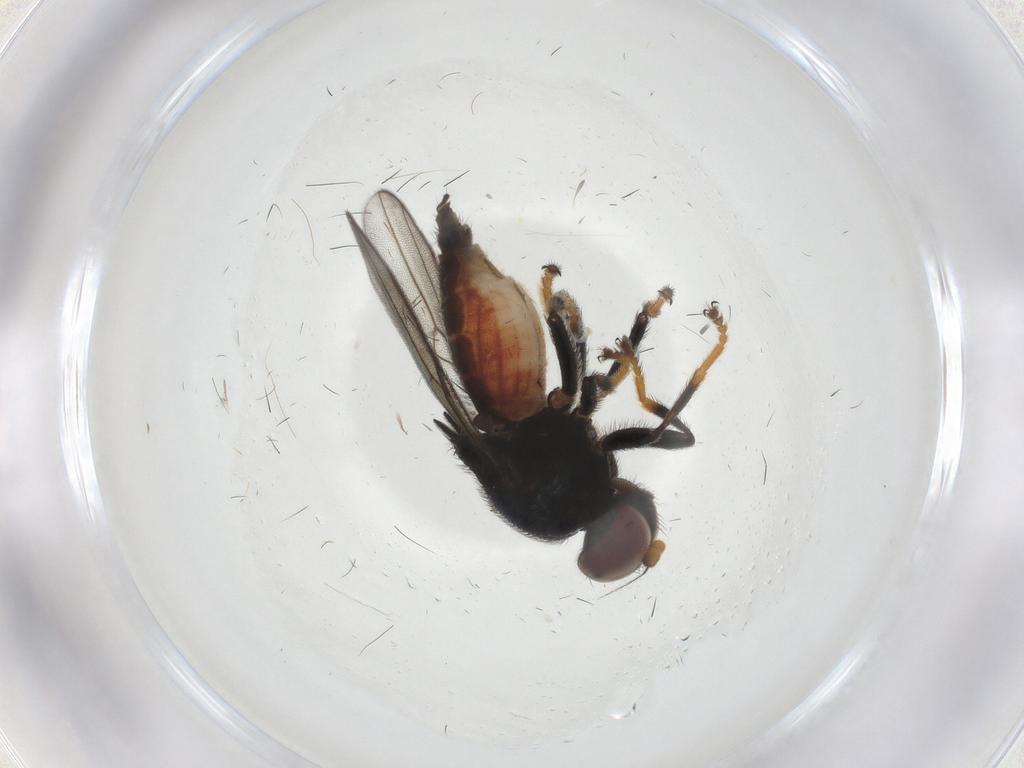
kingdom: Animalia
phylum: Arthropoda
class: Insecta
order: Diptera
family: Chloropidae
